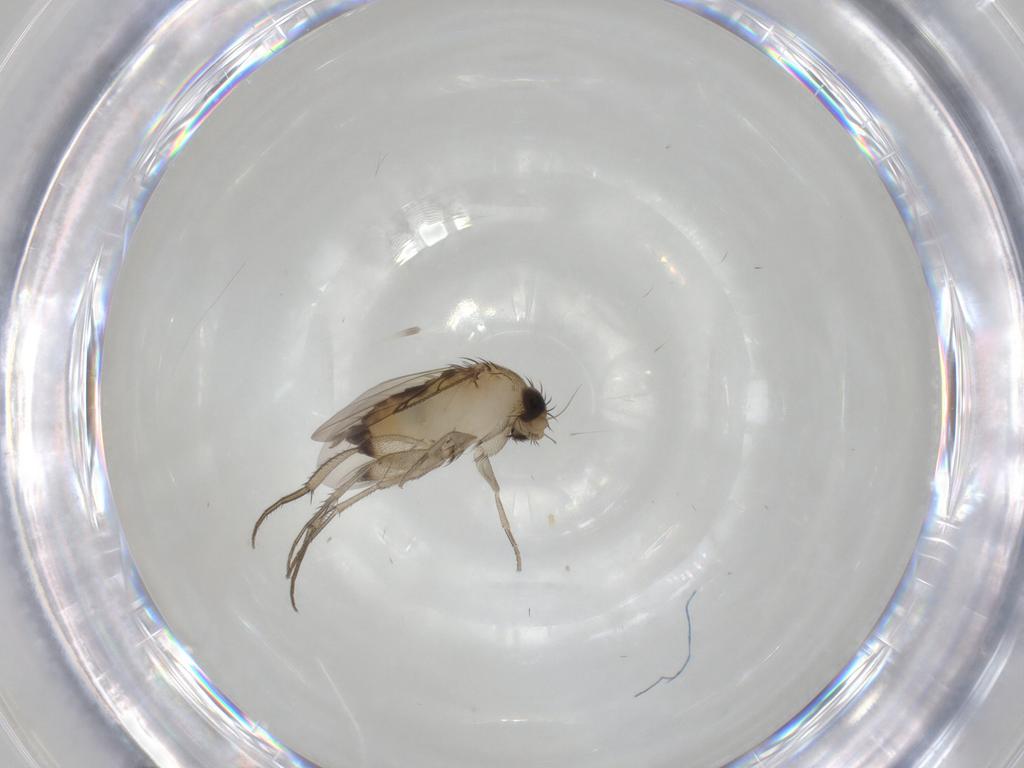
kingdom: Animalia
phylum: Arthropoda
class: Insecta
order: Diptera
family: Phoridae
